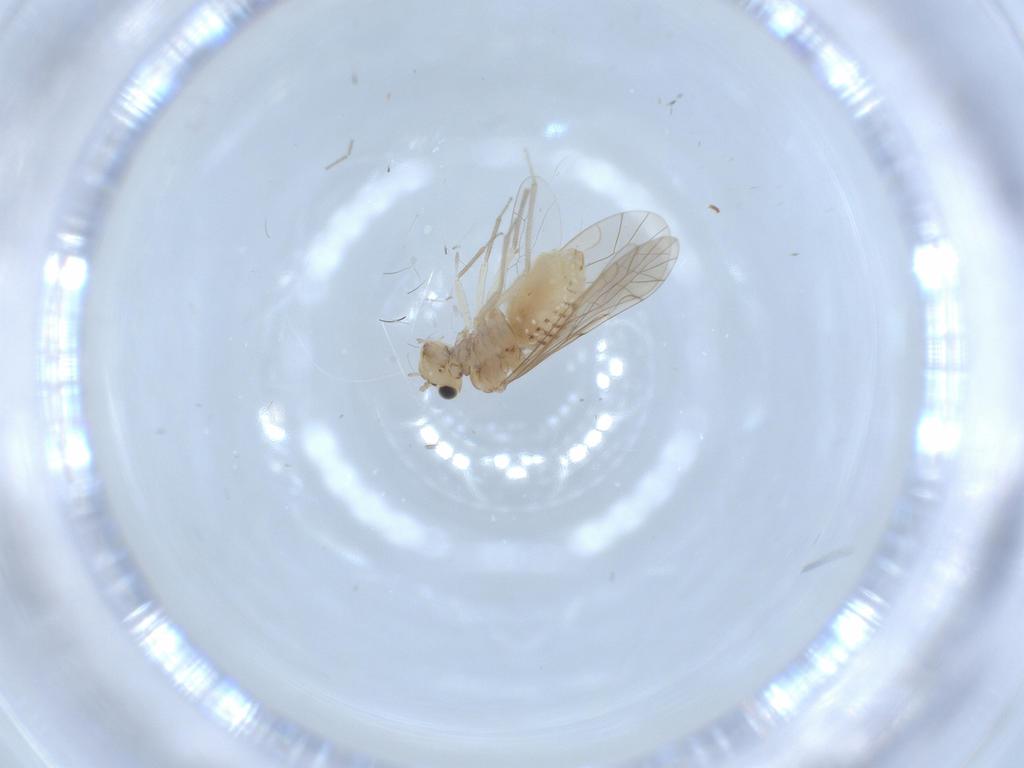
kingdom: Animalia
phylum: Arthropoda
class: Insecta
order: Psocodea
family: Lachesillidae
